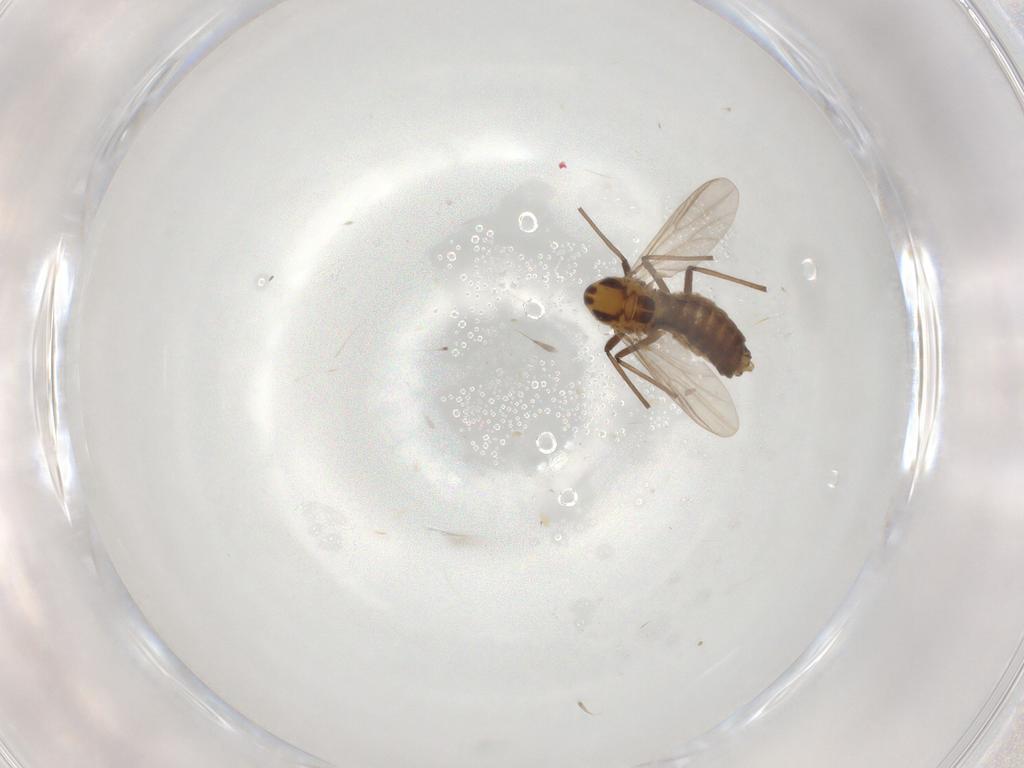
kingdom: Animalia
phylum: Arthropoda
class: Insecta
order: Diptera
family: Chironomidae
